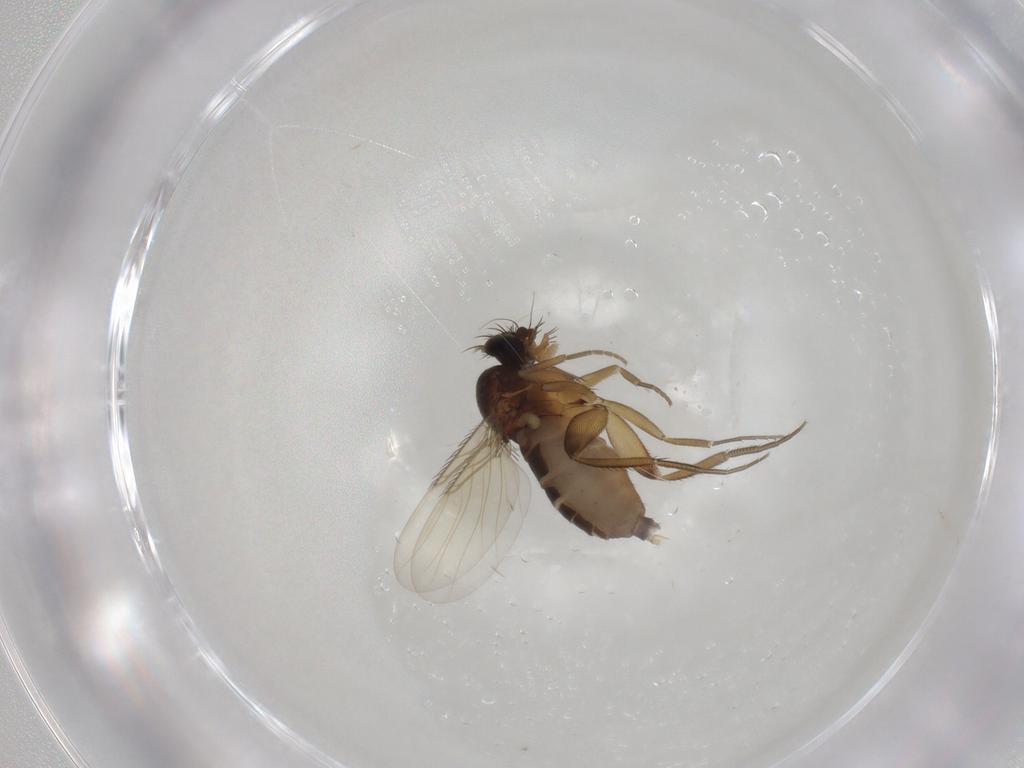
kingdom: Animalia
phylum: Arthropoda
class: Insecta
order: Diptera
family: Phoridae
